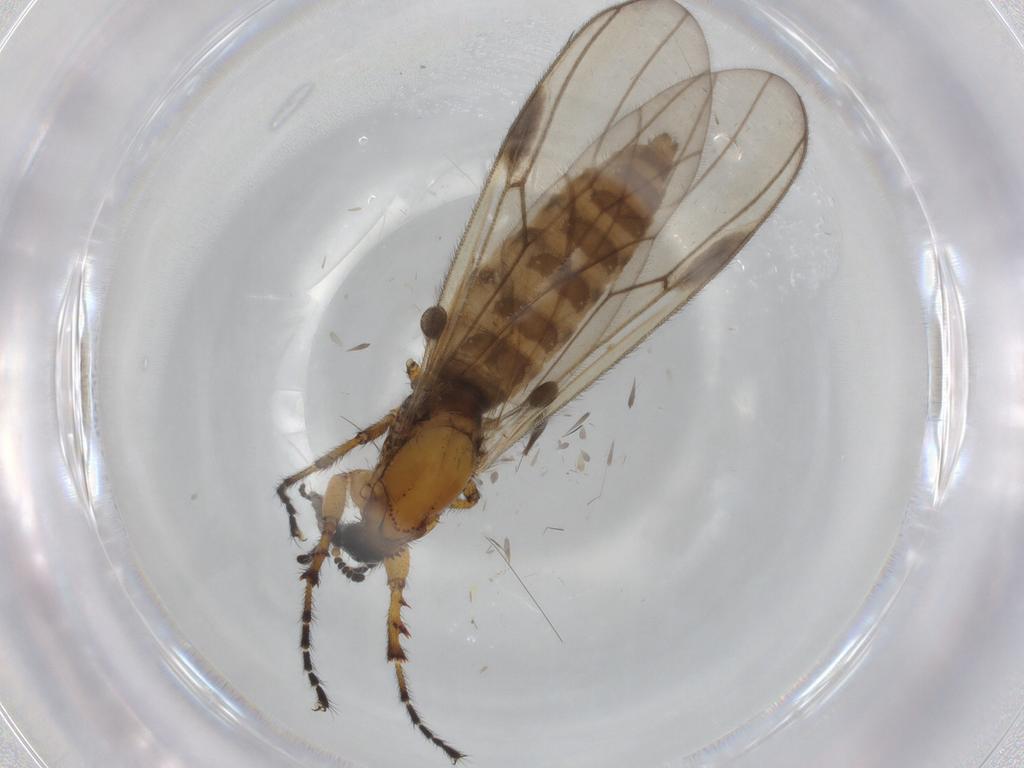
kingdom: Animalia
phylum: Arthropoda
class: Insecta
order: Diptera
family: Bibionidae
